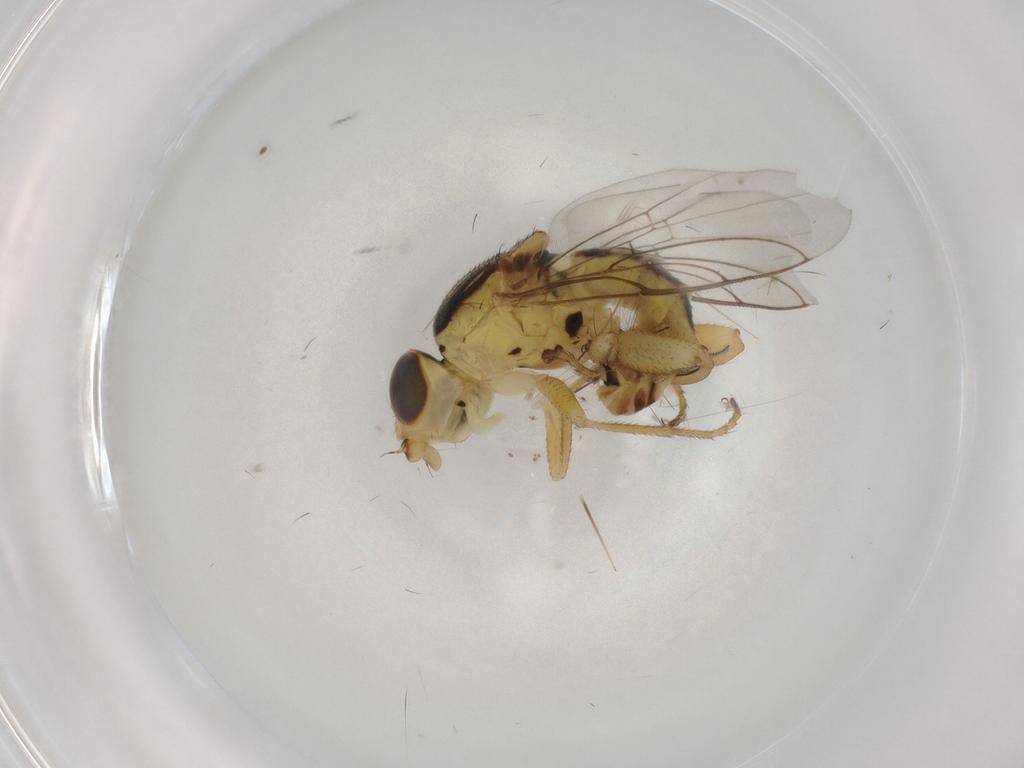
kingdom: Animalia
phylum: Arthropoda
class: Insecta
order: Diptera
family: Chloropidae
